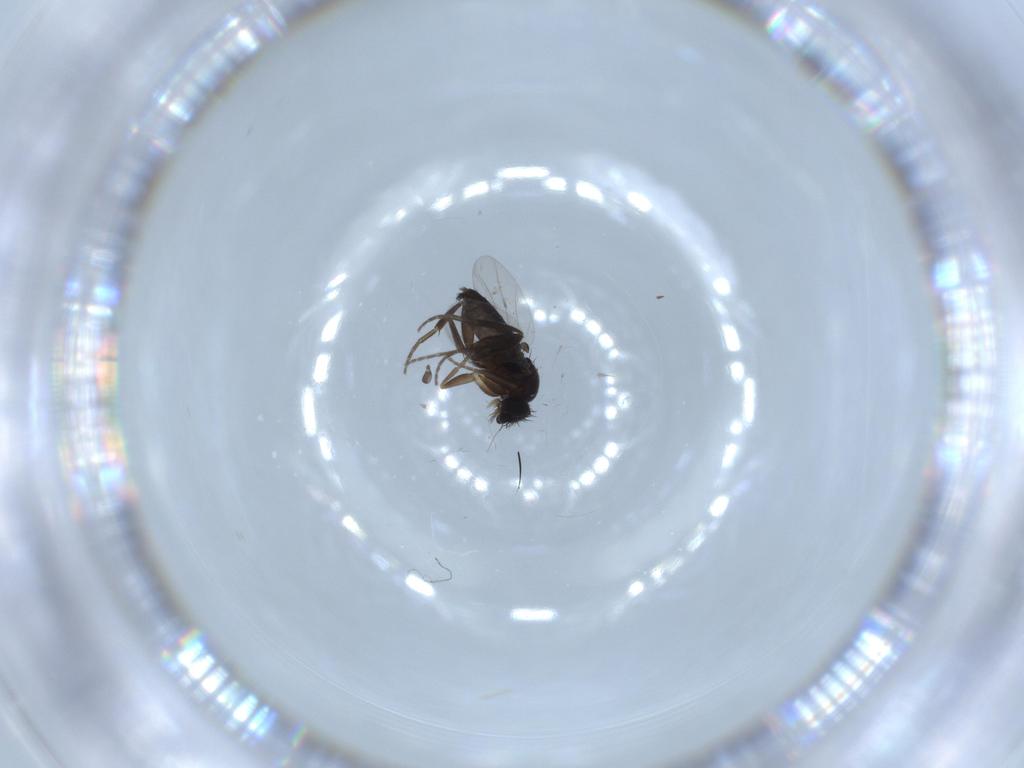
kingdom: Animalia
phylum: Arthropoda
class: Insecta
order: Diptera
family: Phoridae
